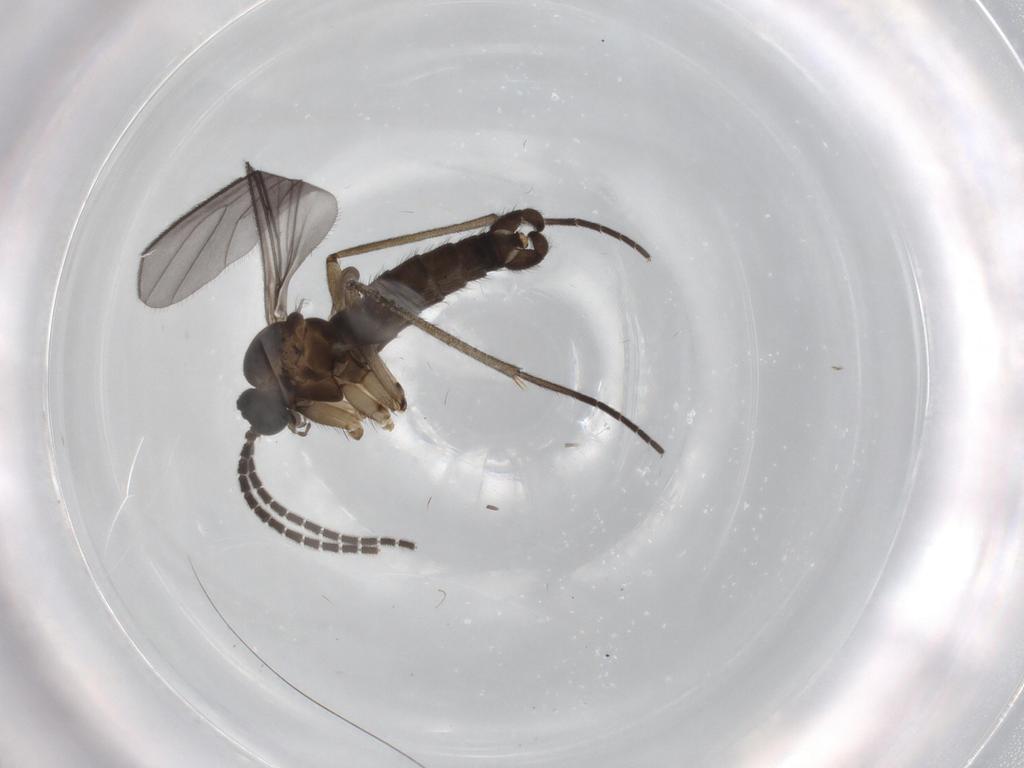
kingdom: Animalia
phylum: Arthropoda
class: Insecta
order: Diptera
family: Sciaridae
